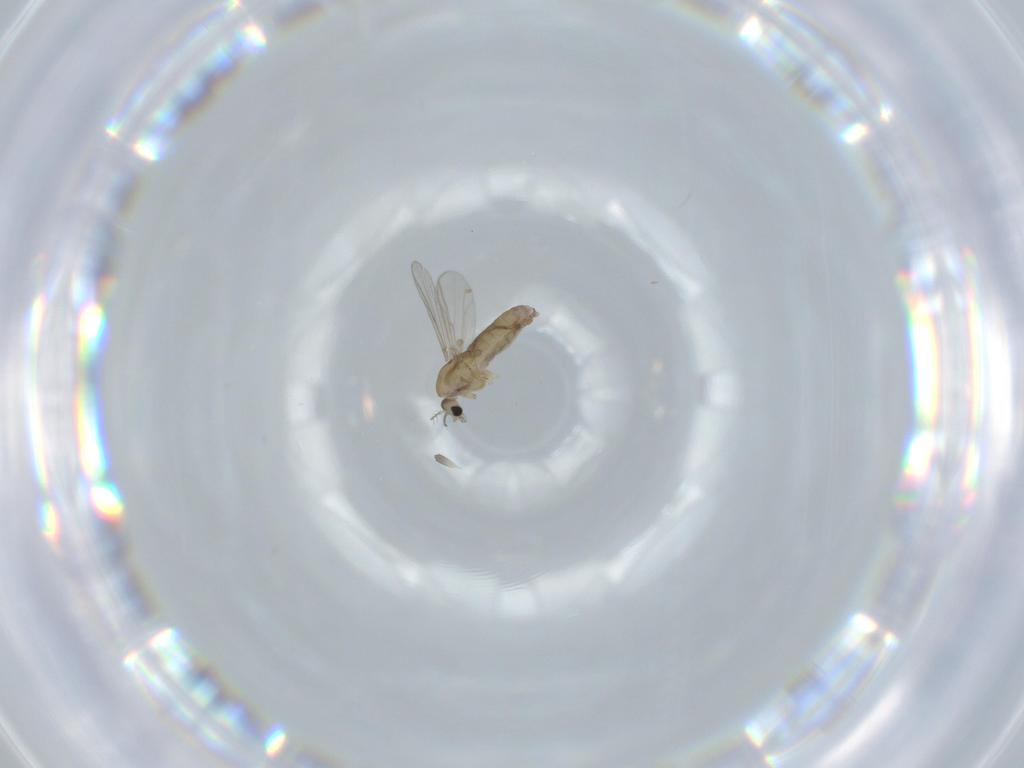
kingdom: Animalia
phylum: Arthropoda
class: Insecta
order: Diptera
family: Chironomidae
